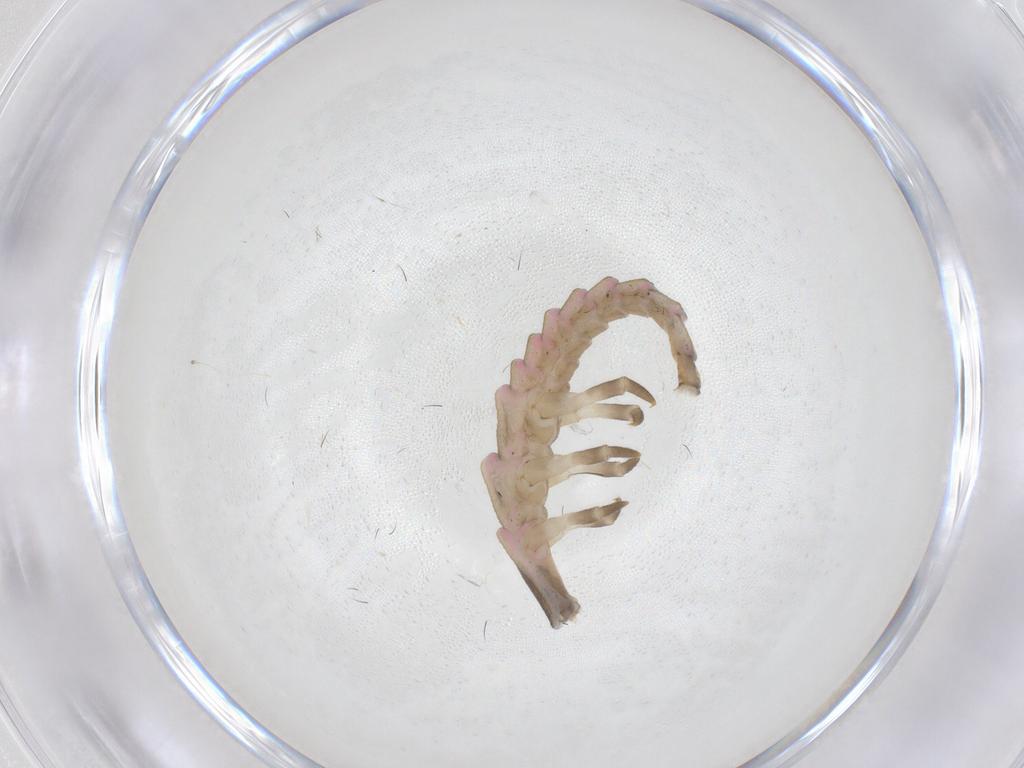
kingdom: Animalia
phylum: Arthropoda
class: Insecta
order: Coleoptera
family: Lampyridae
